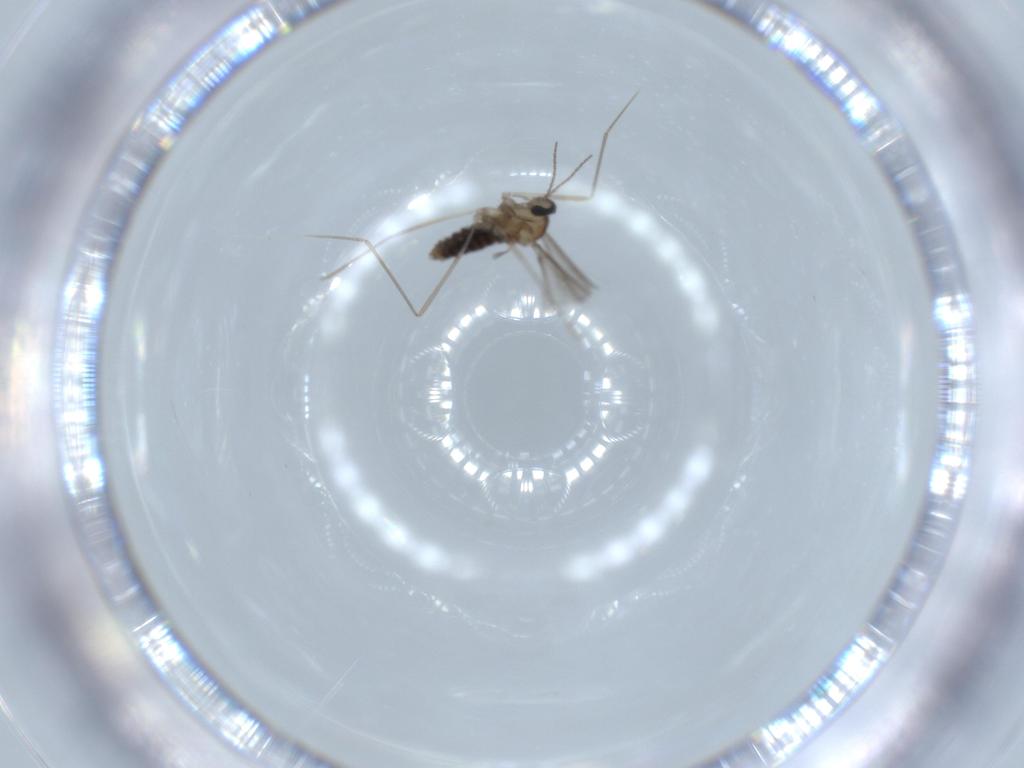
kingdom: Animalia
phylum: Arthropoda
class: Insecta
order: Diptera
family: Cecidomyiidae
